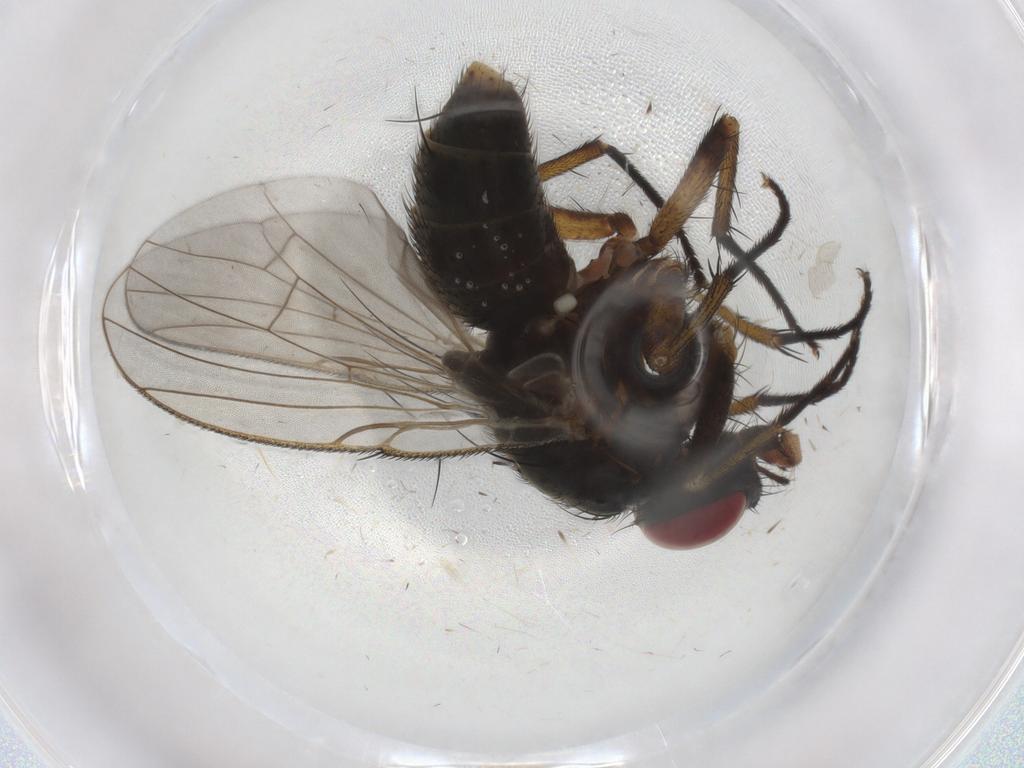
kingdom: Animalia
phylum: Arthropoda
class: Insecta
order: Diptera
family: Muscidae
